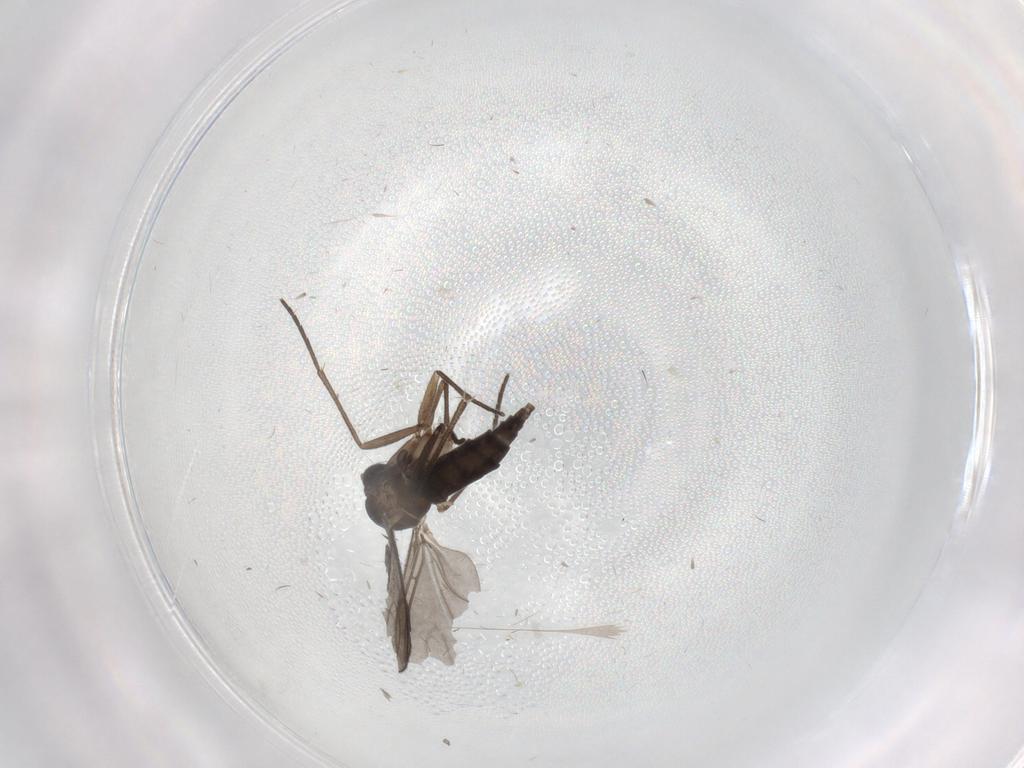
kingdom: Animalia
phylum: Arthropoda
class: Insecta
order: Diptera
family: Sciaridae
